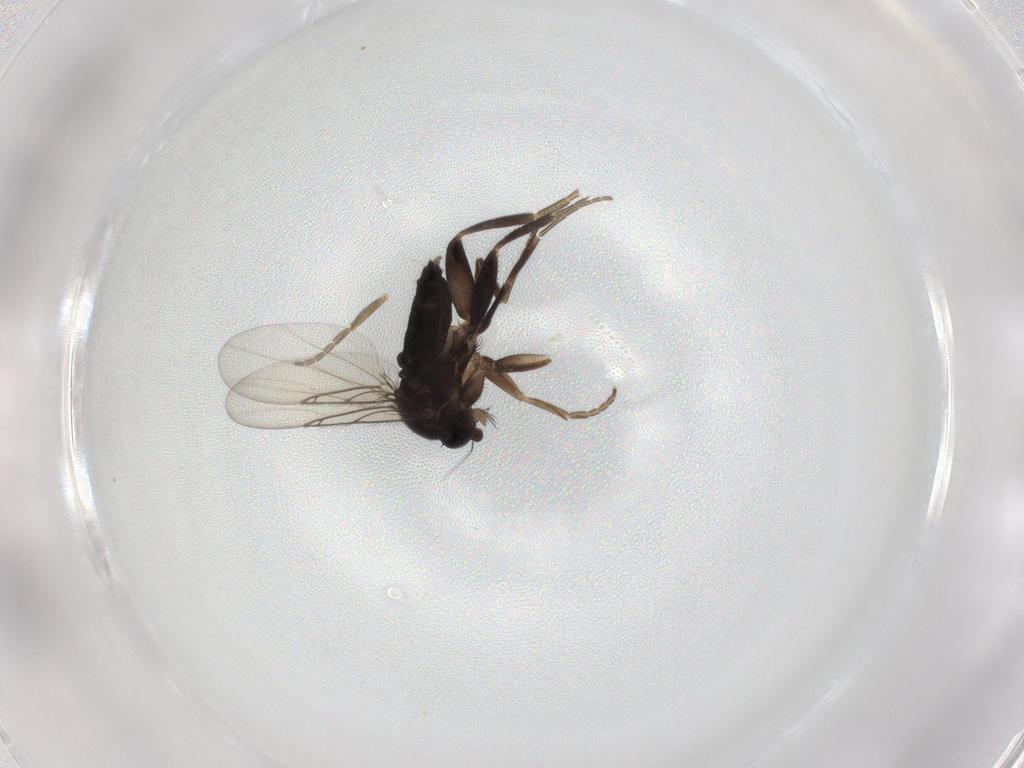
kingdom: Animalia
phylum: Arthropoda
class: Insecta
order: Diptera
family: Phoridae
